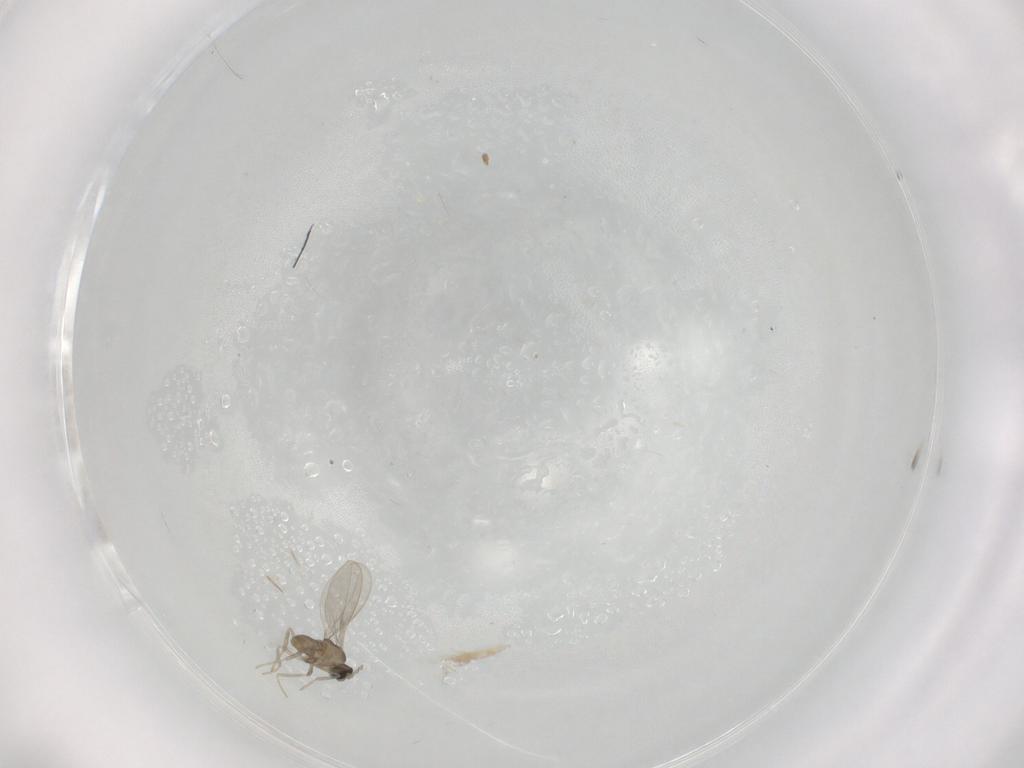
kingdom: Animalia
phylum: Arthropoda
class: Insecta
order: Diptera
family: Cecidomyiidae
